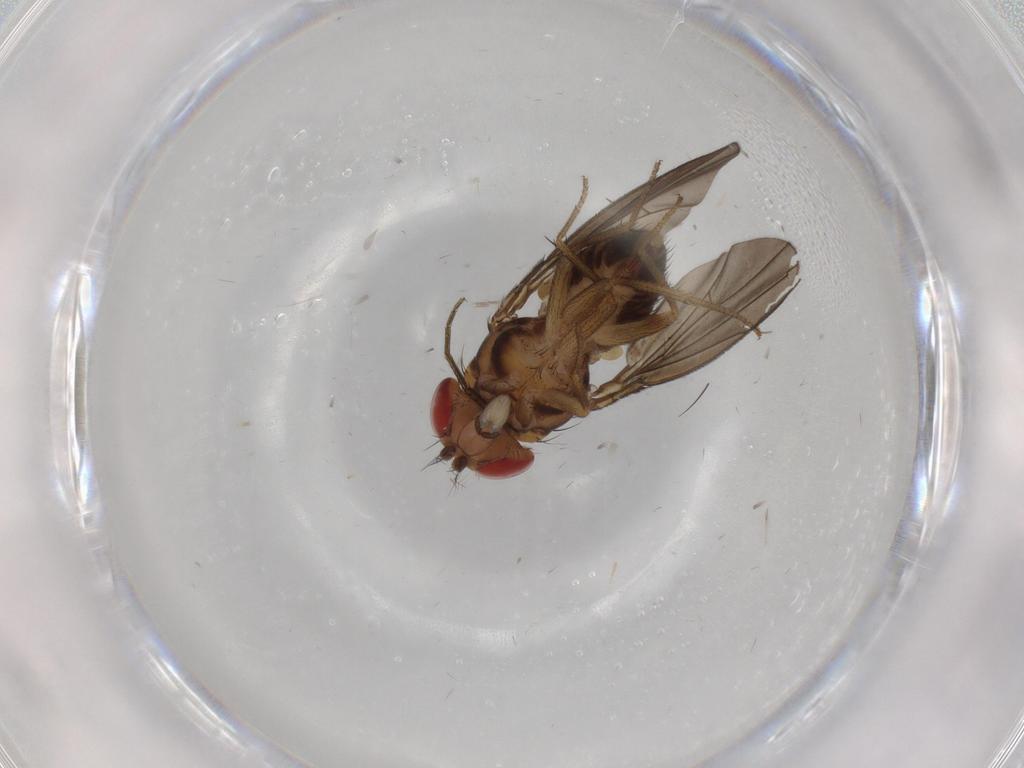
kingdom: Animalia
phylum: Arthropoda
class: Insecta
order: Diptera
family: Drosophilidae
